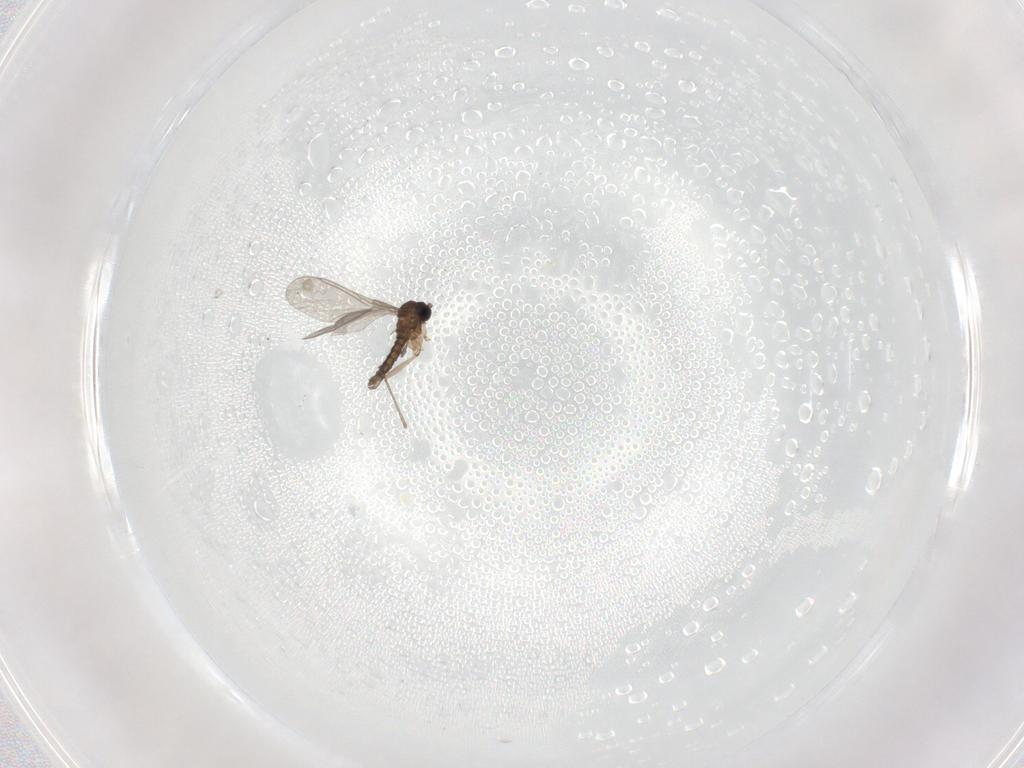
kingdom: Animalia
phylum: Arthropoda
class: Insecta
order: Diptera
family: Sciaridae
